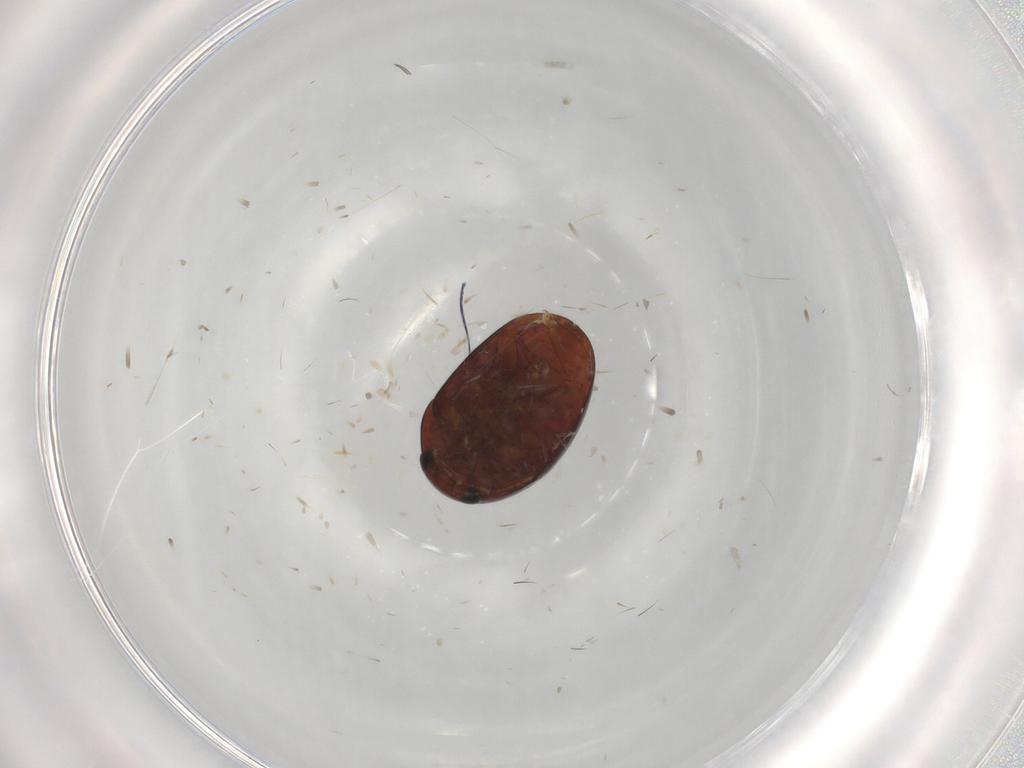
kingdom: Animalia
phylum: Arthropoda
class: Insecta
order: Coleoptera
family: Phalacridae
